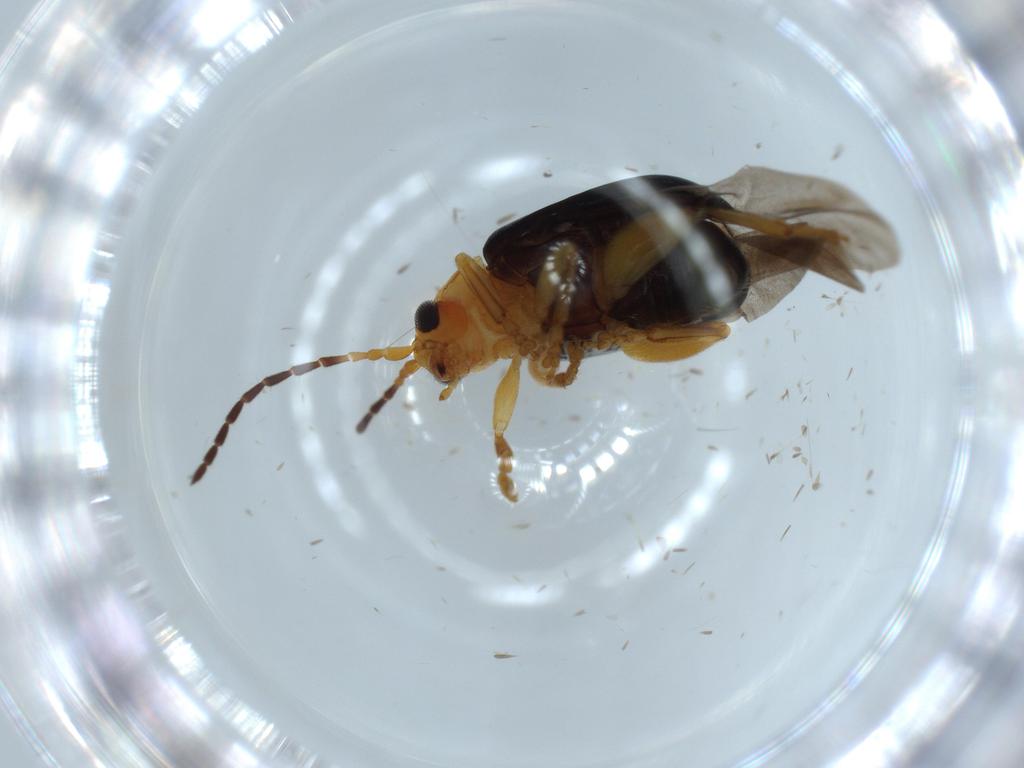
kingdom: Animalia
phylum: Arthropoda
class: Insecta
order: Coleoptera
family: Chrysomelidae
